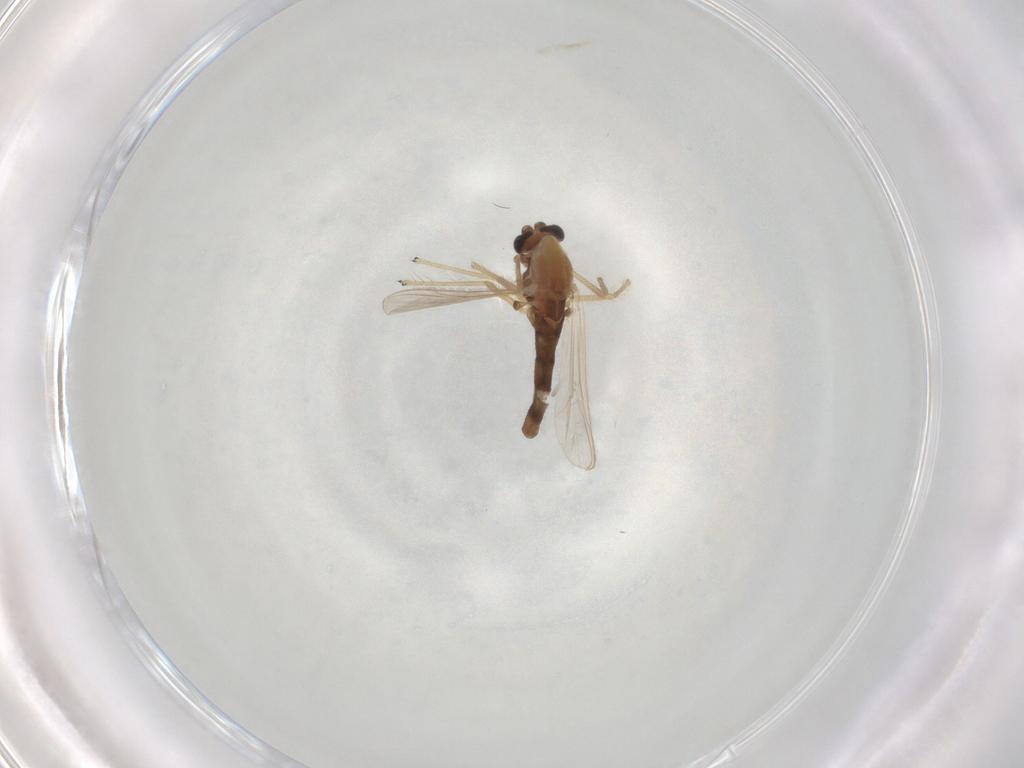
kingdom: Animalia
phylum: Arthropoda
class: Insecta
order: Diptera
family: Chironomidae
